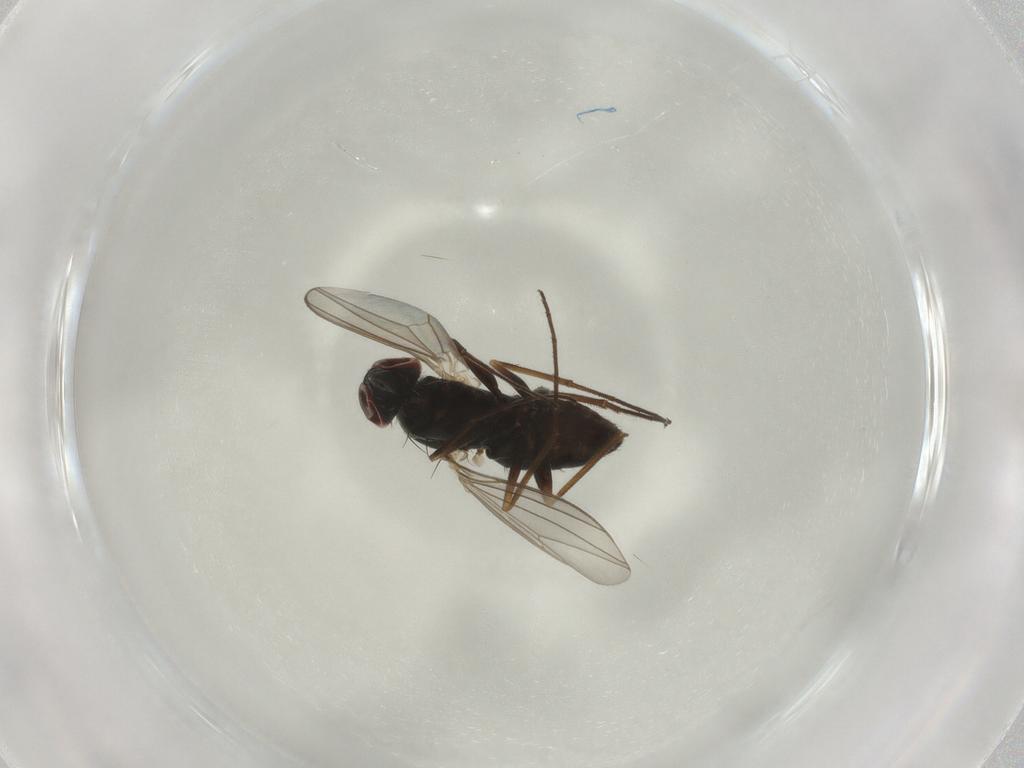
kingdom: Animalia
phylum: Arthropoda
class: Insecta
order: Diptera
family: Dolichopodidae
